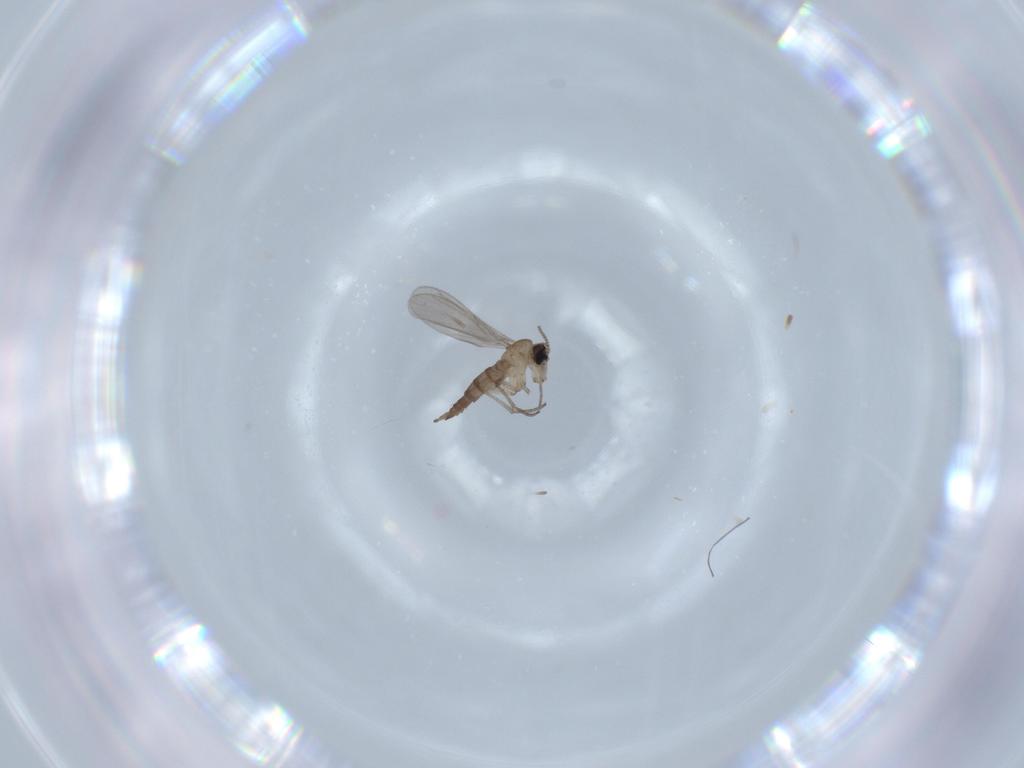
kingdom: Animalia
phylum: Arthropoda
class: Insecta
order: Diptera
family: Sciaridae
